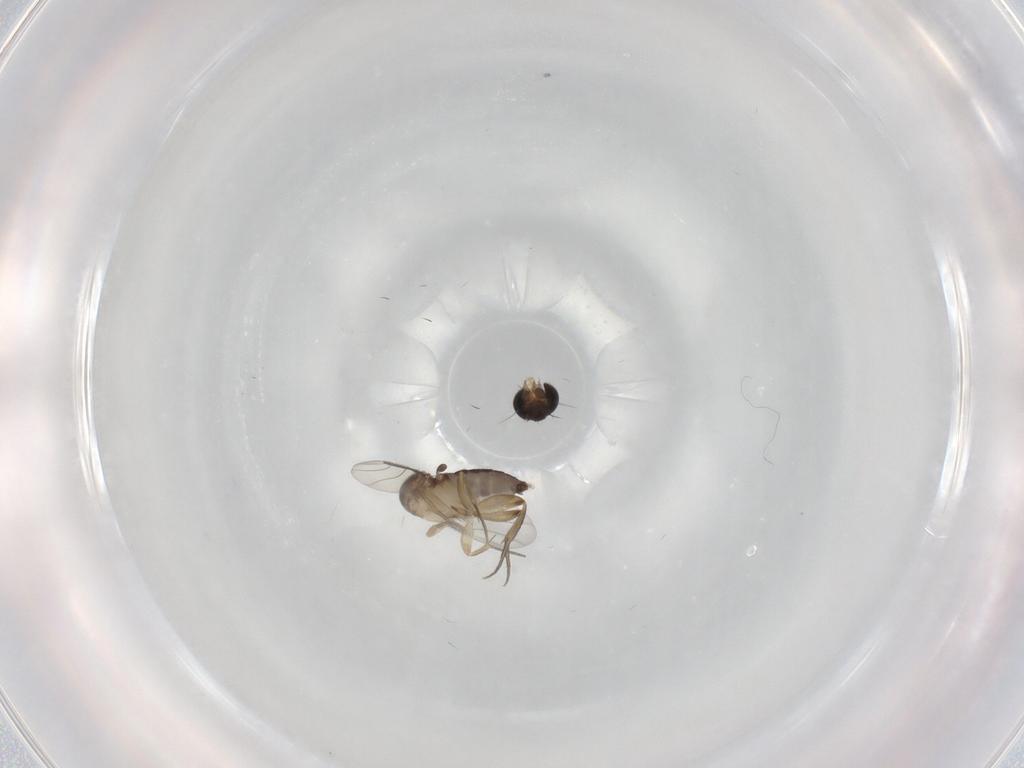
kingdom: Animalia
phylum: Arthropoda
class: Insecta
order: Diptera
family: Phoridae
